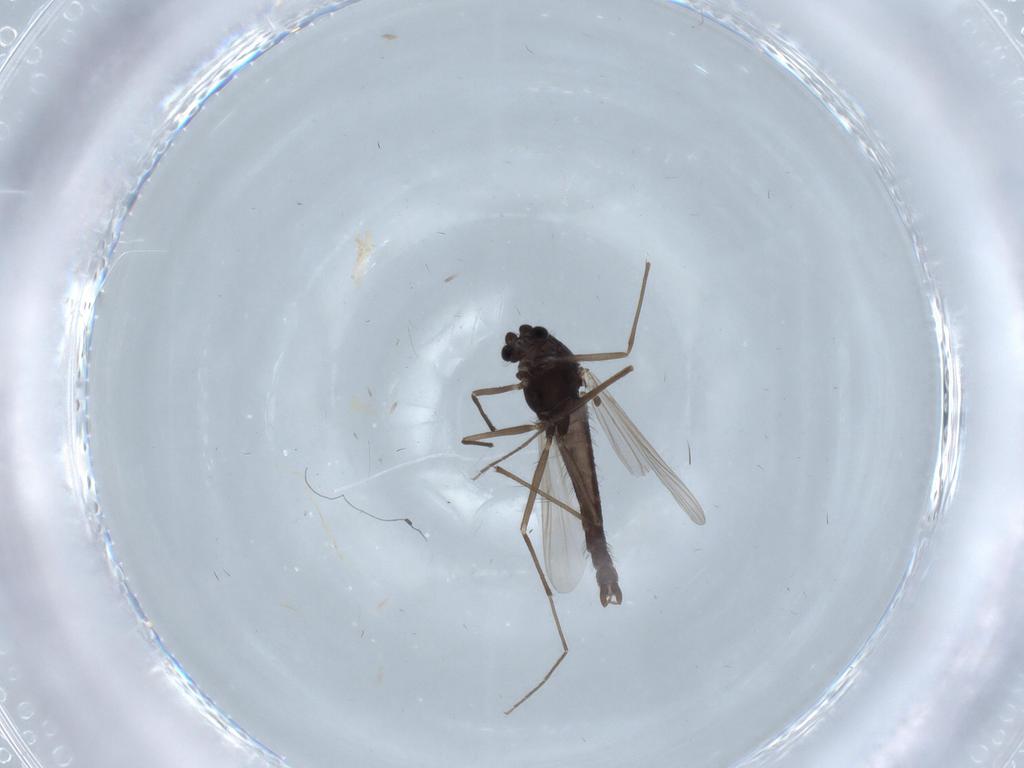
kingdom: Animalia
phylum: Arthropoda
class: Insecta
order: Diptera
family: Chironomidae
